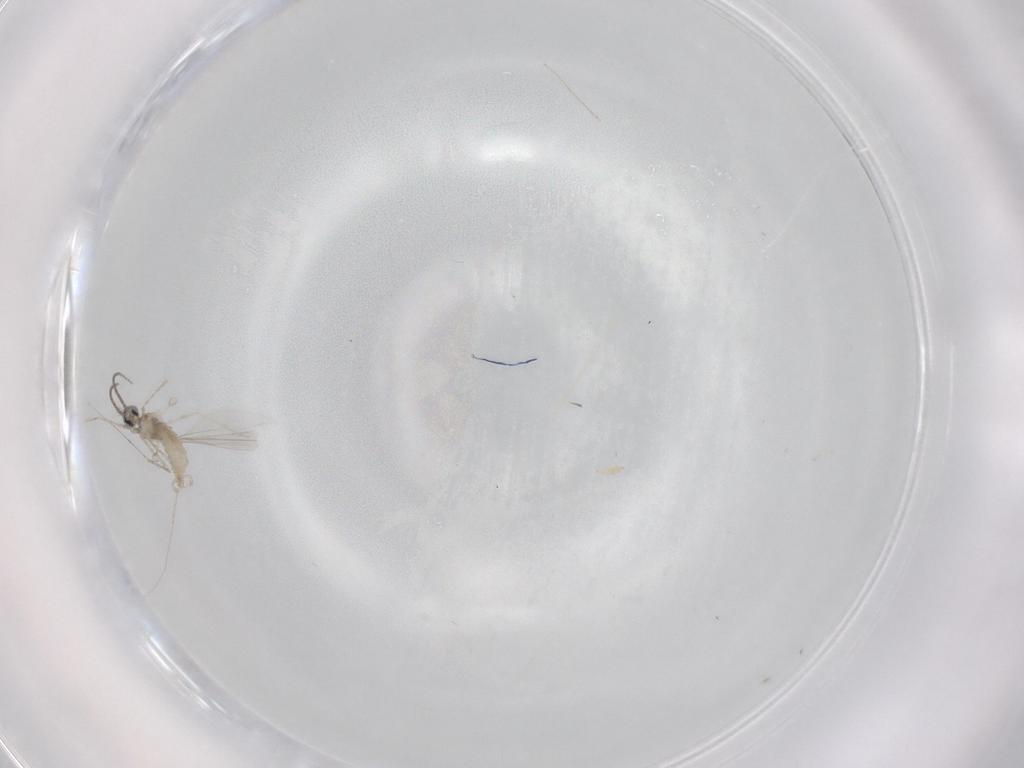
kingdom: Animalia
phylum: Arthropoda
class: Insecta
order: Diptera
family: Cecidomyiidae
